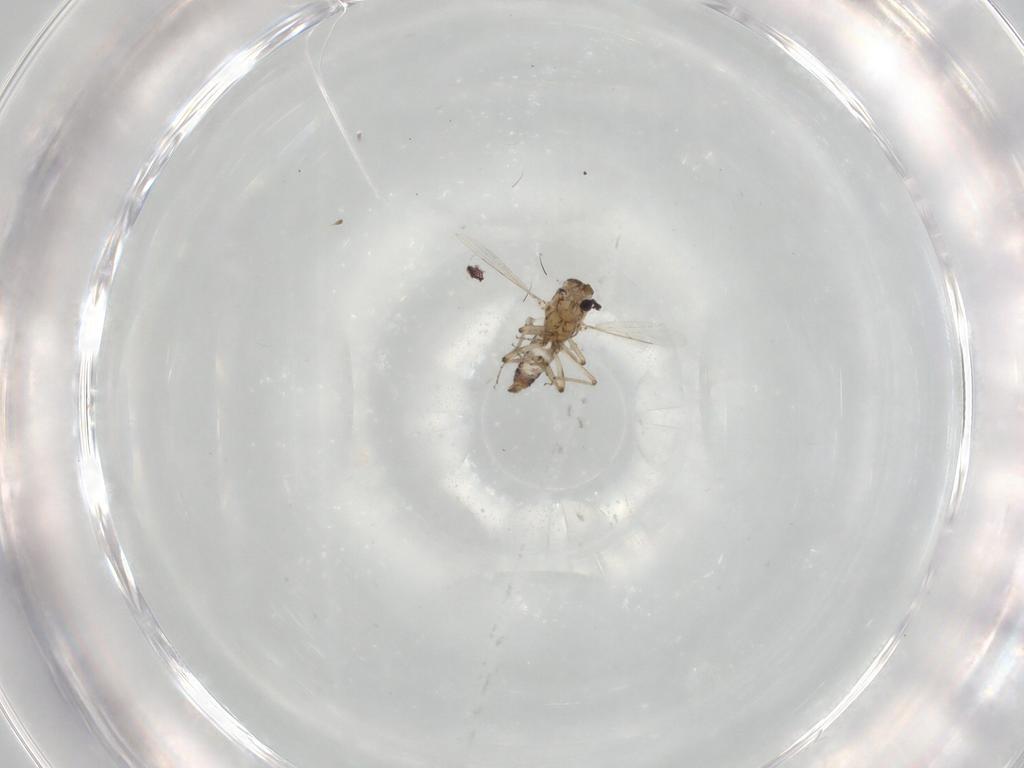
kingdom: Animalia
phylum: Arthropoda
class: Insecta
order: Diptera
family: Ceratopogonidae
